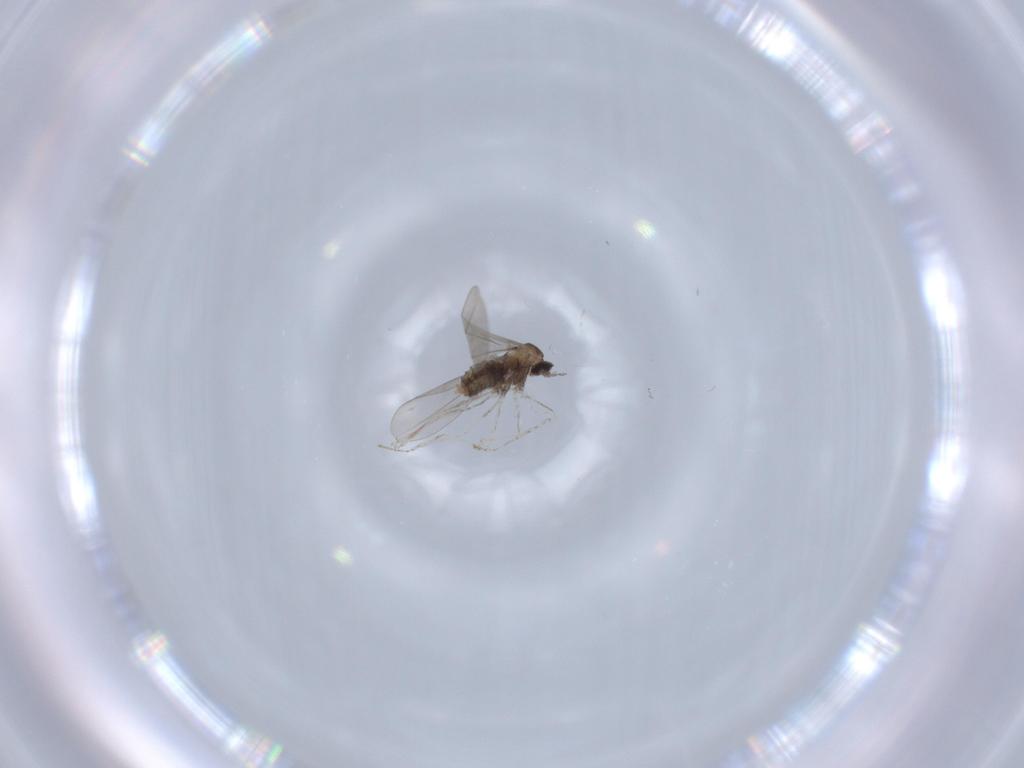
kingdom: Animalia
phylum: Arthropoda
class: Insecta
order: Diptera
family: Cecidomyiidae
